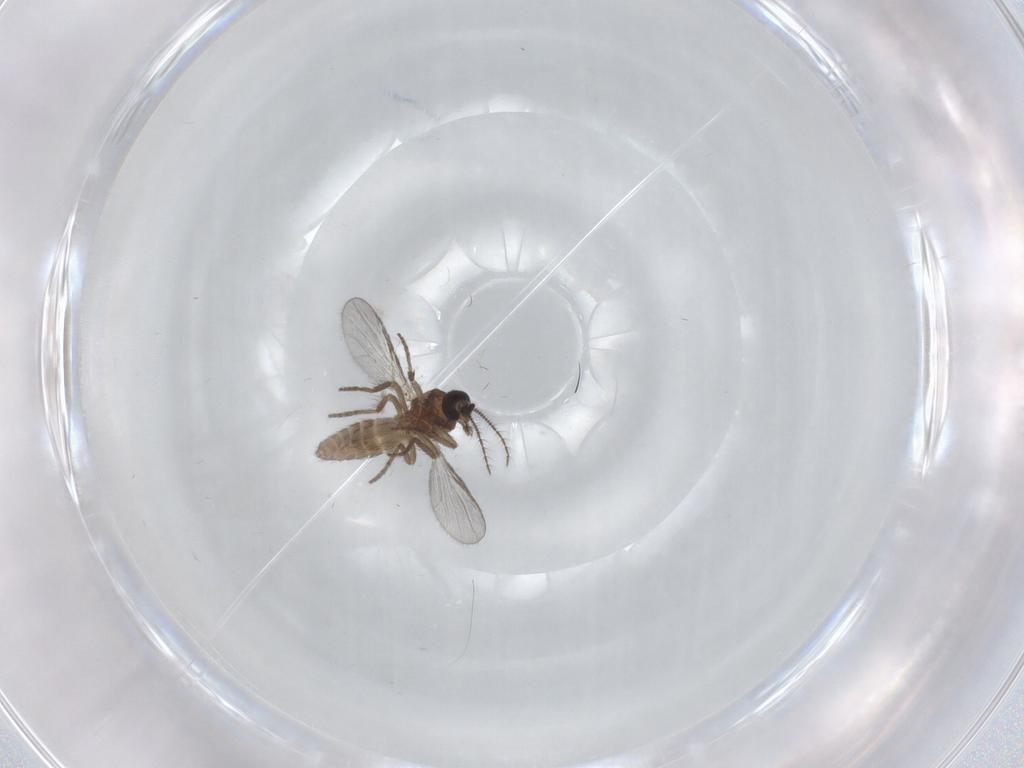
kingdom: Animalia
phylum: Arthropoda
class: Insecta
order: Diptera
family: Phoridae
